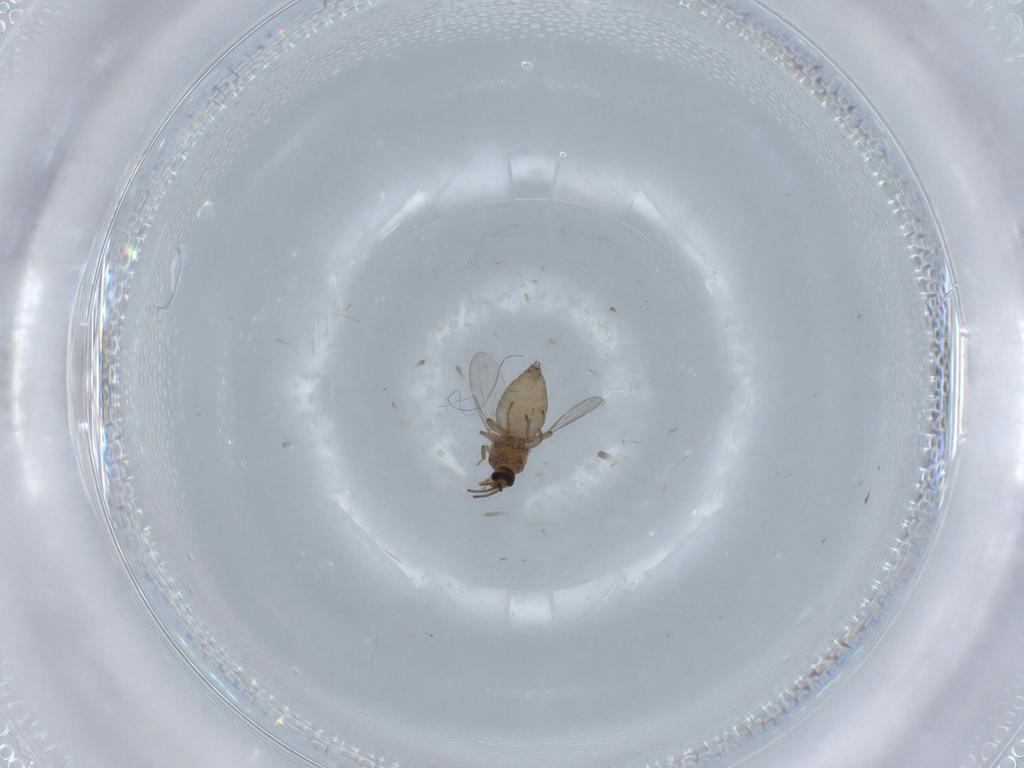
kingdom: Animalia
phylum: Arthropoda
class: Insecta
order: Diptera
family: Ceratopogonidae
